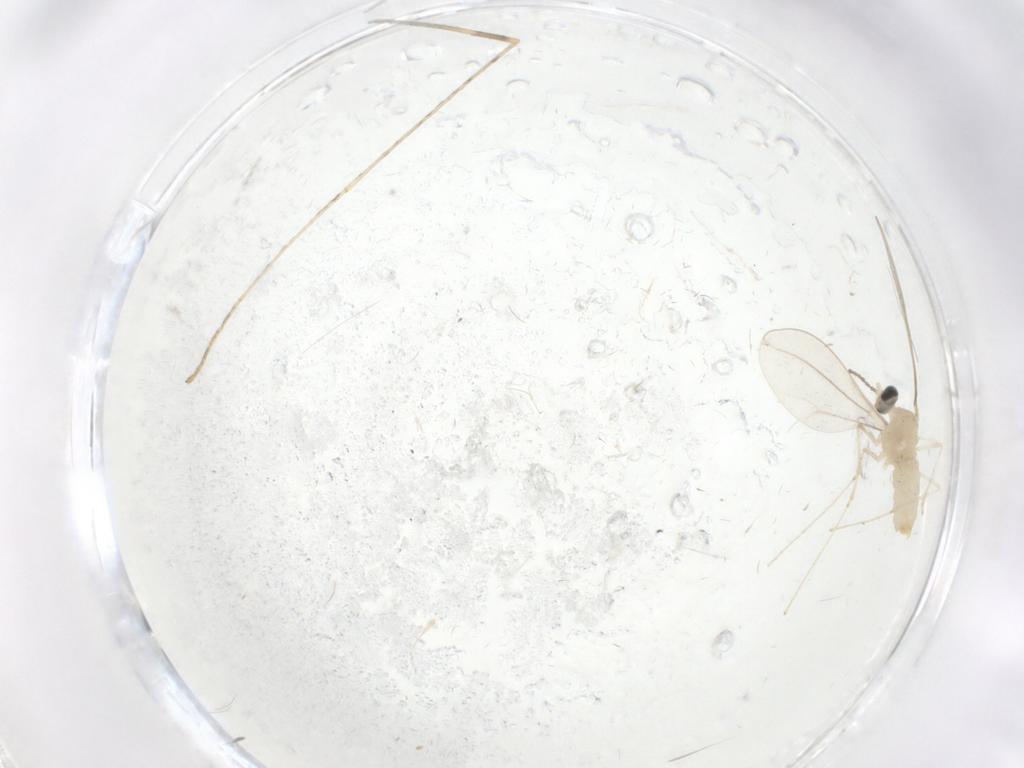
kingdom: Animalia
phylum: Arthropoda
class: Insecta
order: Diptera
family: Cecidomyiidae
